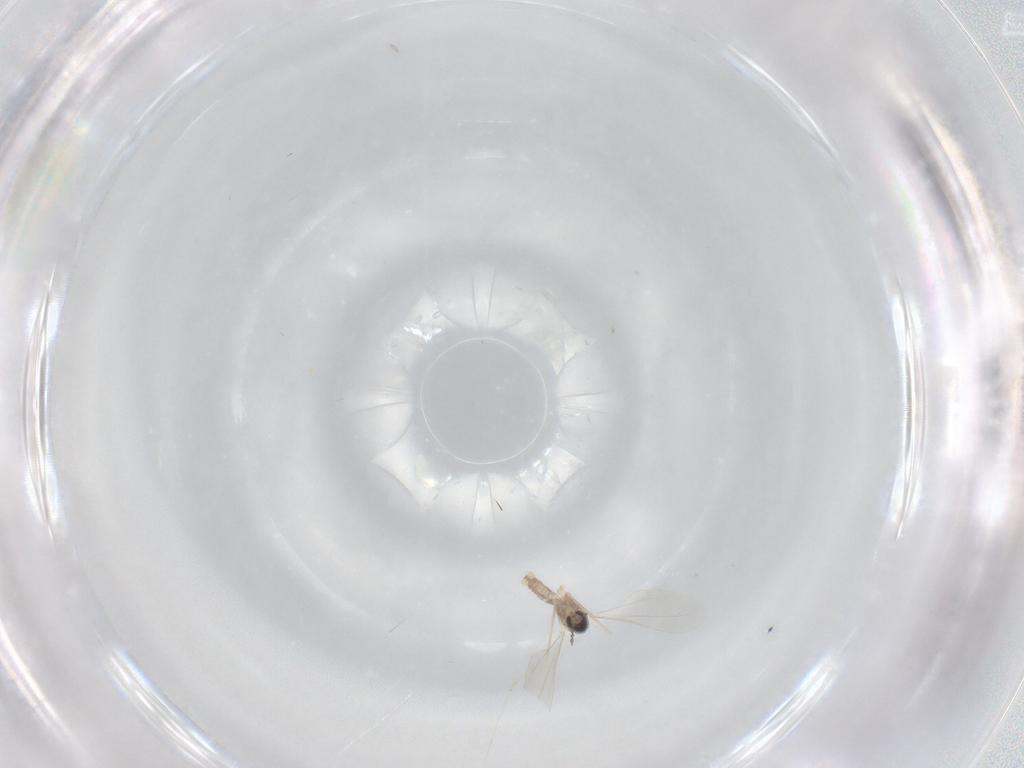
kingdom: Animalia
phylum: Arthropoda
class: Insecta
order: Diptera
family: Cecidomyiidae
